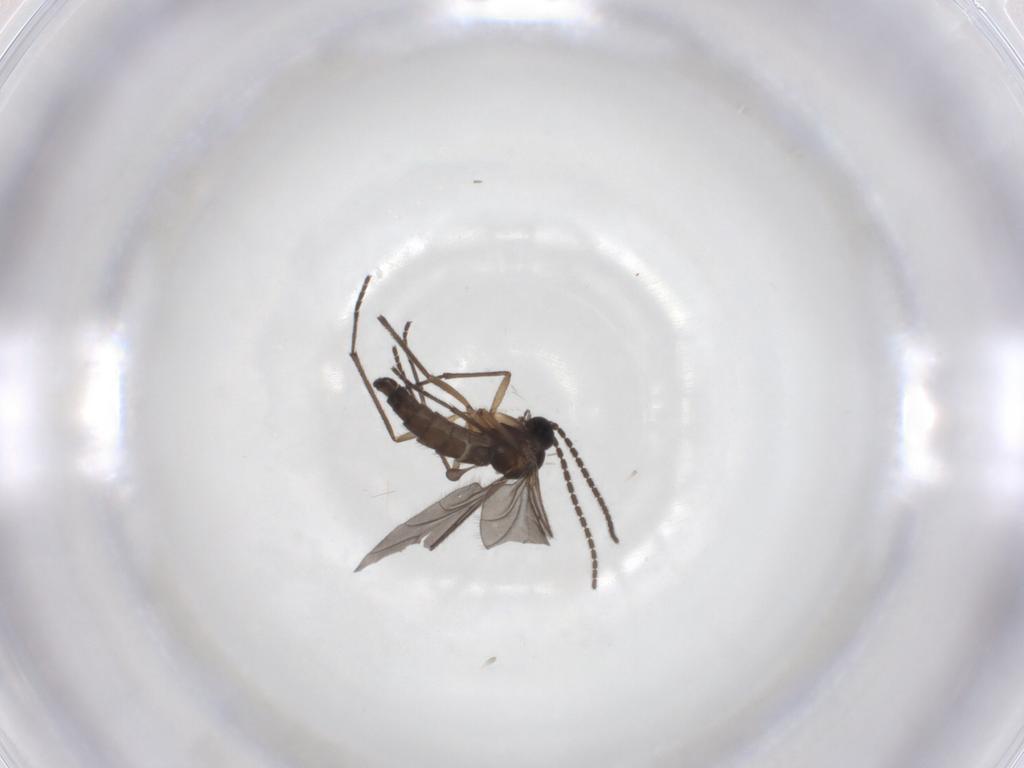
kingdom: Animalia
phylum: Arthropoda
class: Insecta
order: Diptera
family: Sciaridae
